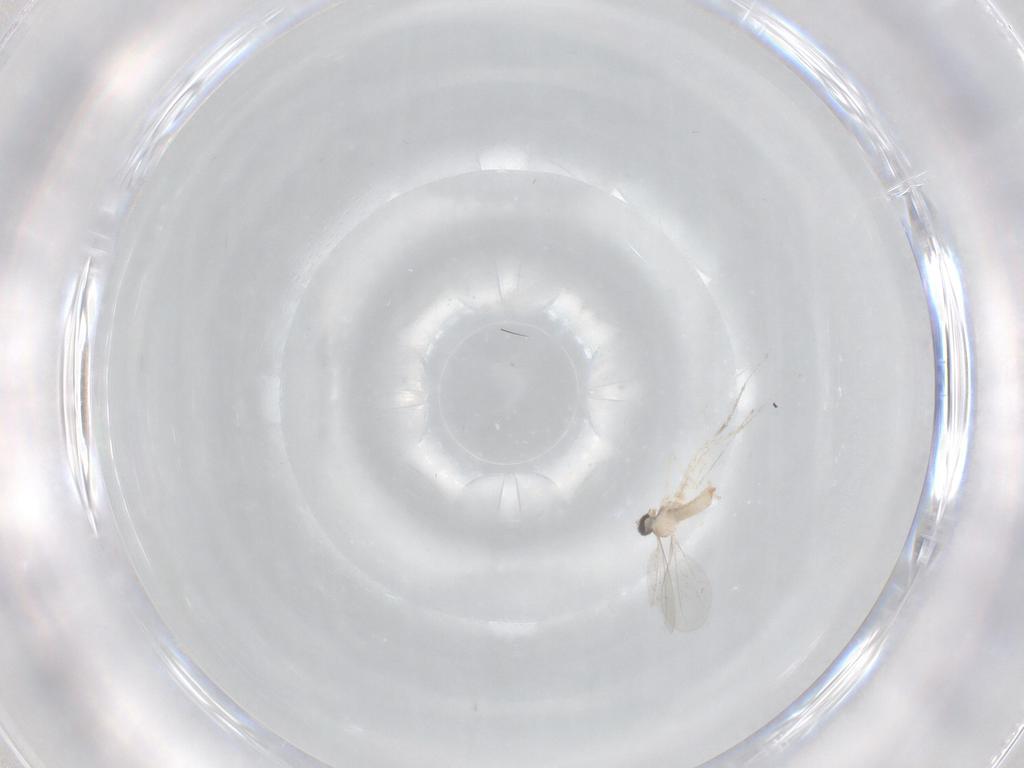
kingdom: Animalia
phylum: Arthropoda
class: Insecta
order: Diptera
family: Cecidomyiidae
